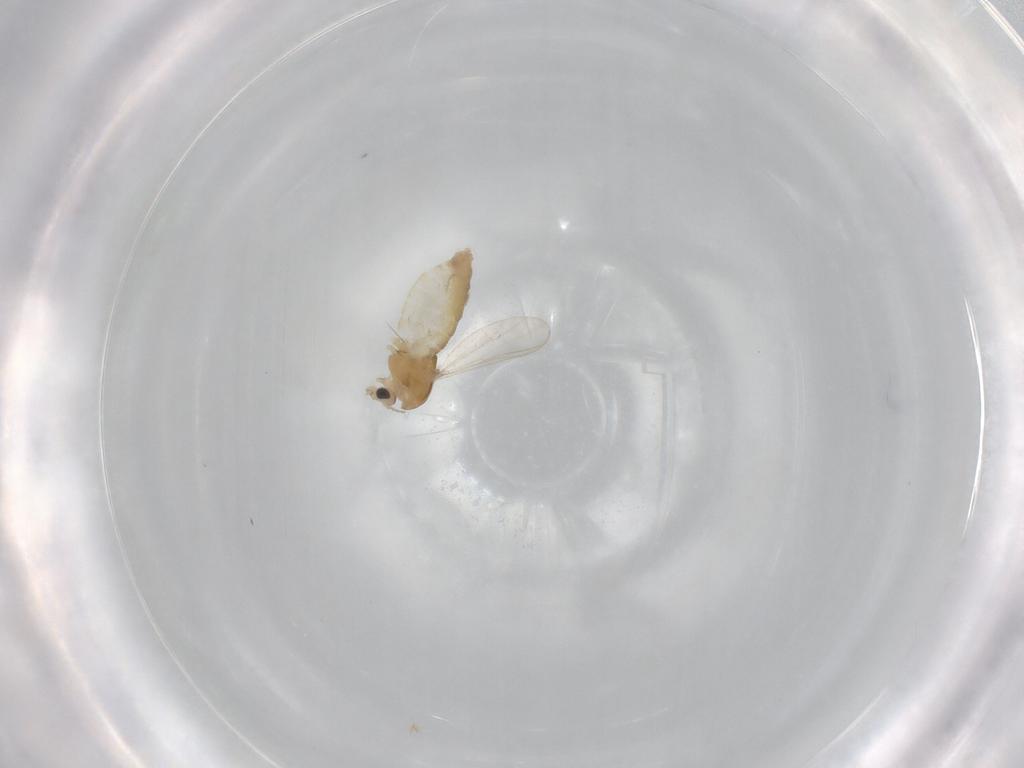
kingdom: Animalia
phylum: Arthropoda
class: Insecta
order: Diptera
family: Chironomidae
